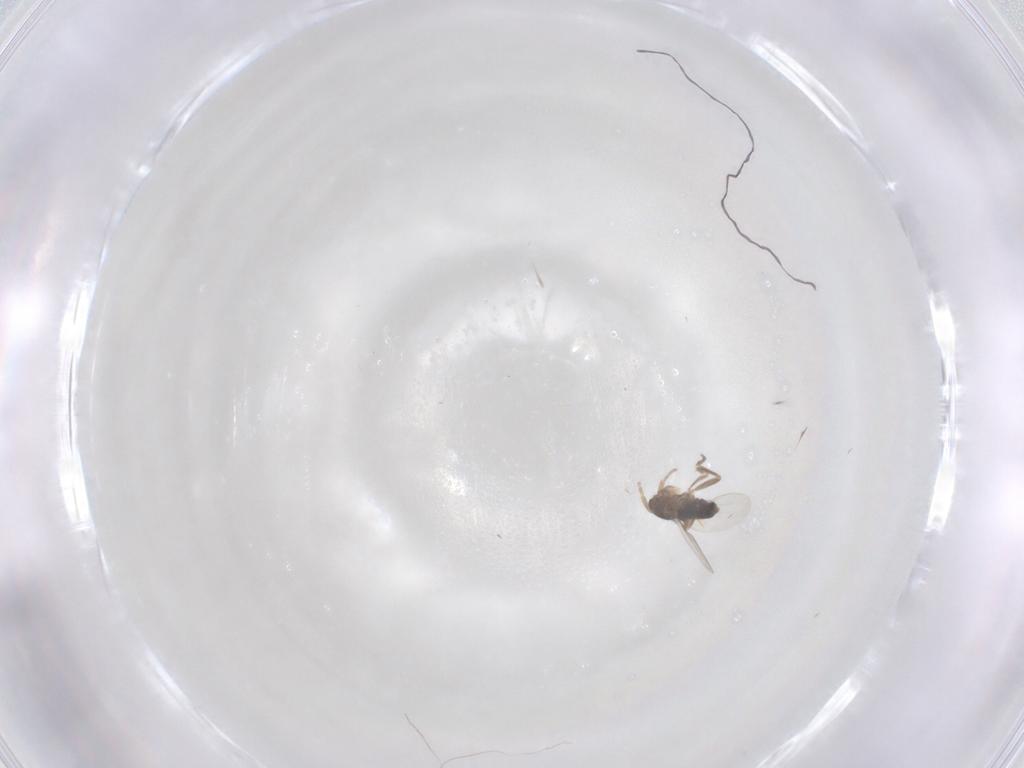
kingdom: Animalia
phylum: Arthropoda
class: Insecta
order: Diptera
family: Phoridae
